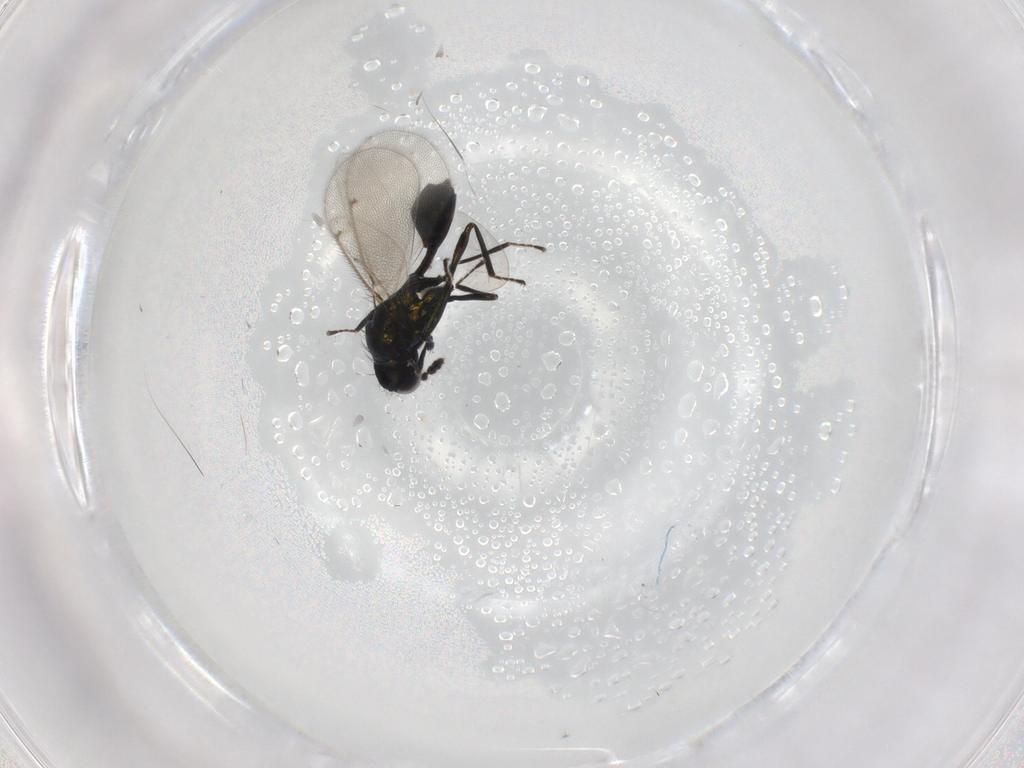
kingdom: Animalia
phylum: Arthropoda
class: Insecta
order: Hymenoptera
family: Eulophidae
